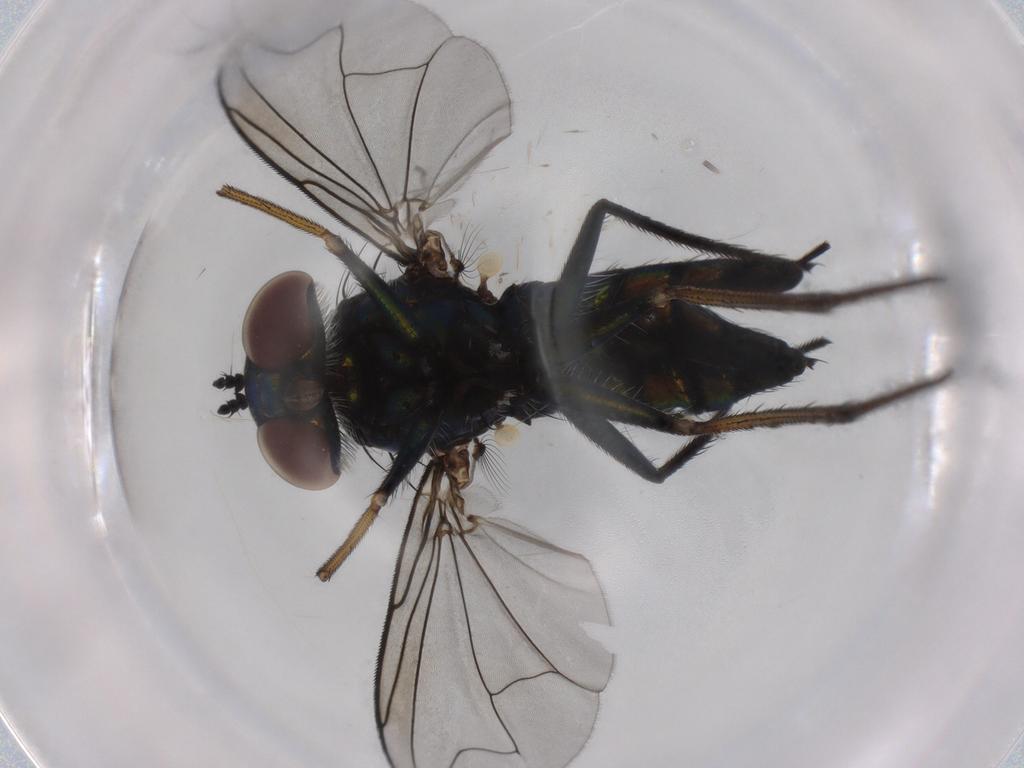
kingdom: Animalia
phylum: Arthropoda
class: Insecta
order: Diptera
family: Dolichopodidae
